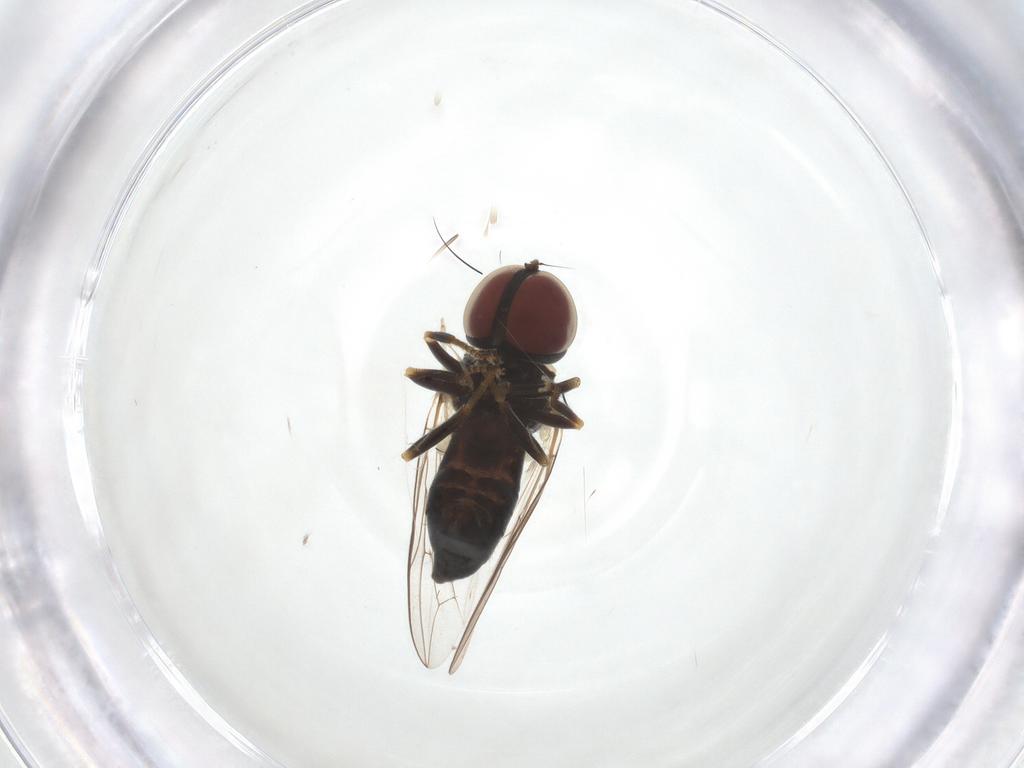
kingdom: Animalia
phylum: Arthropoda
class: Insecta
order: Diptera
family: Pipunculidae
